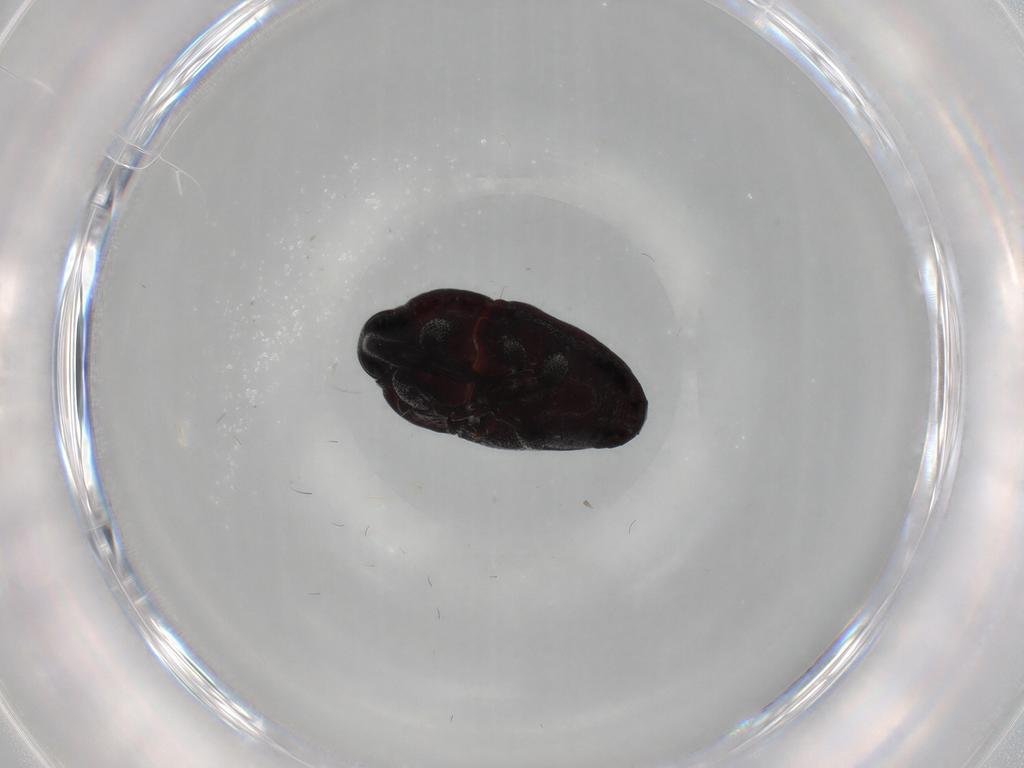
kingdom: Animalia
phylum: Arthropoda
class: Insecta
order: Coleoptera
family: Curculionidae
